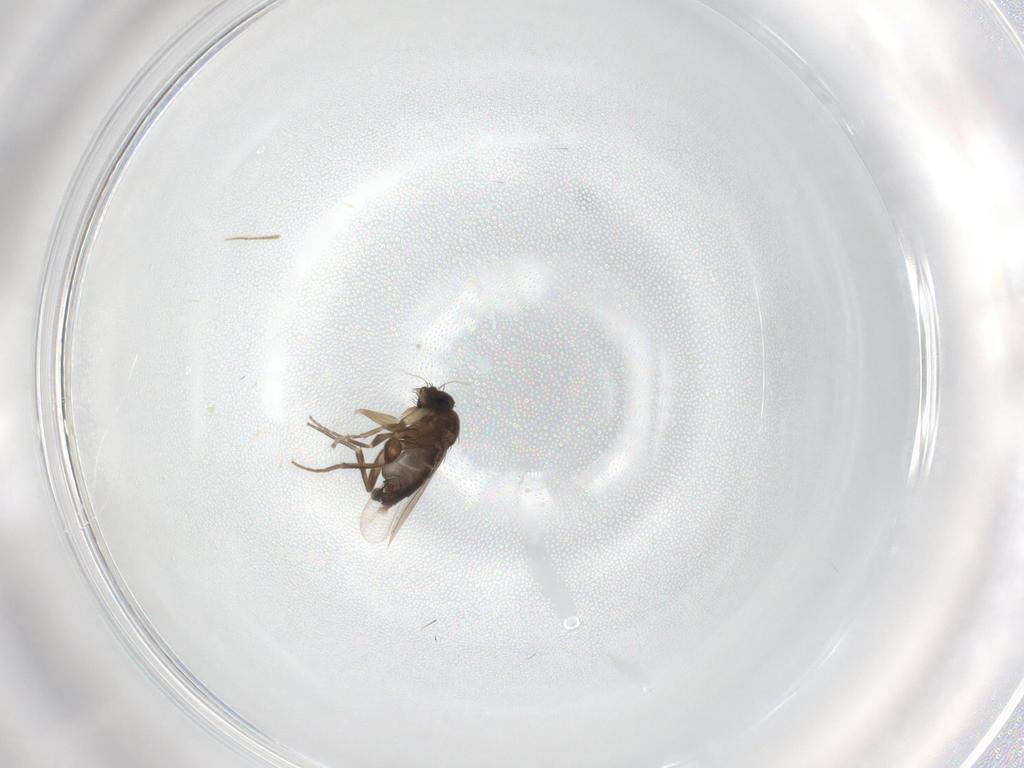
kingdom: Animalia
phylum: Arthropoda
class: Insecta
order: Diptera
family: Phoridae
